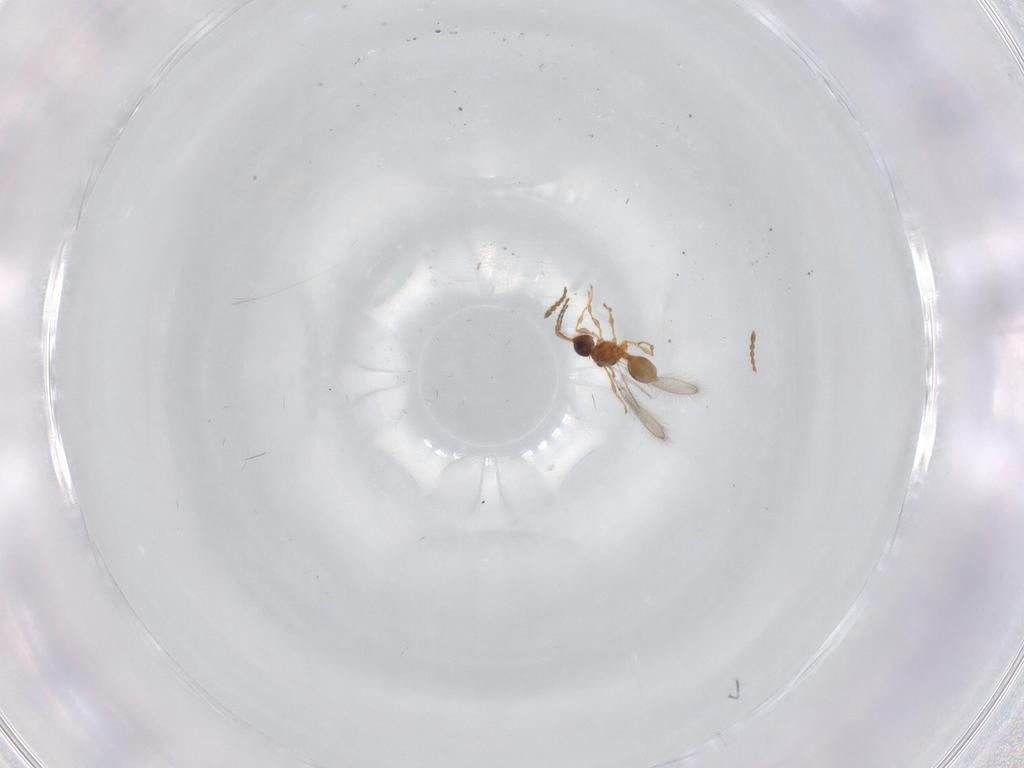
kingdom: Animalia
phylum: Arthropoda
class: Insecta
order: Hymenoptera
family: Diapriidae
